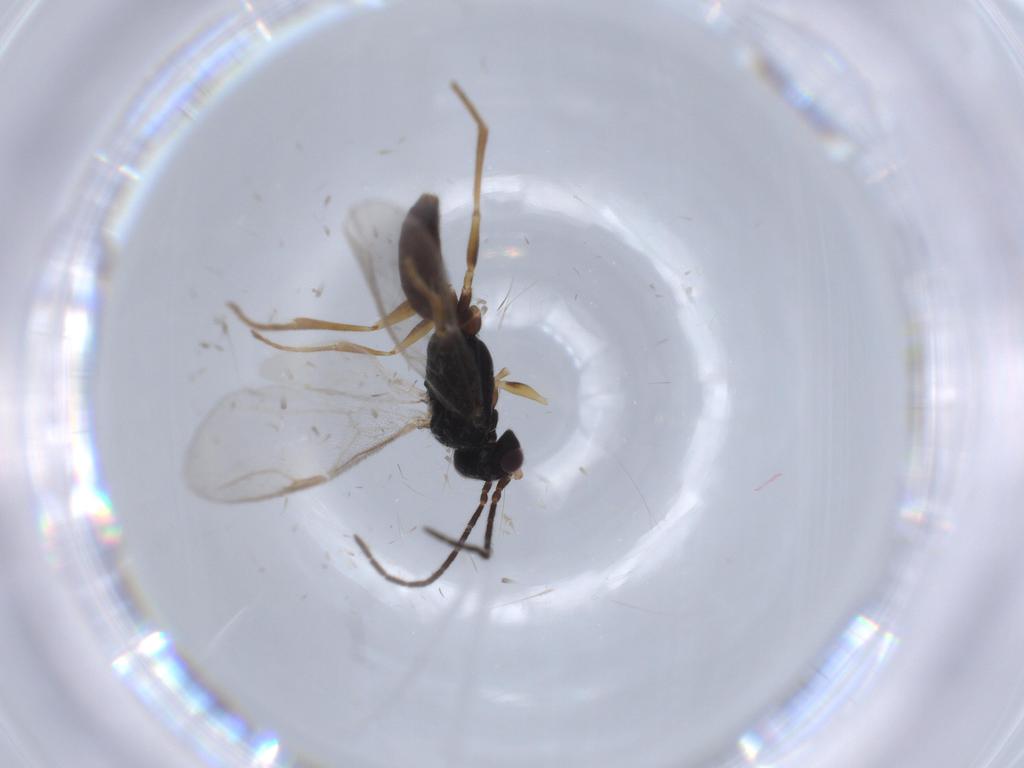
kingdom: Animalia
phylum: Arthropoda
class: Insecta
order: Hymenoptera
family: Dryinidae
